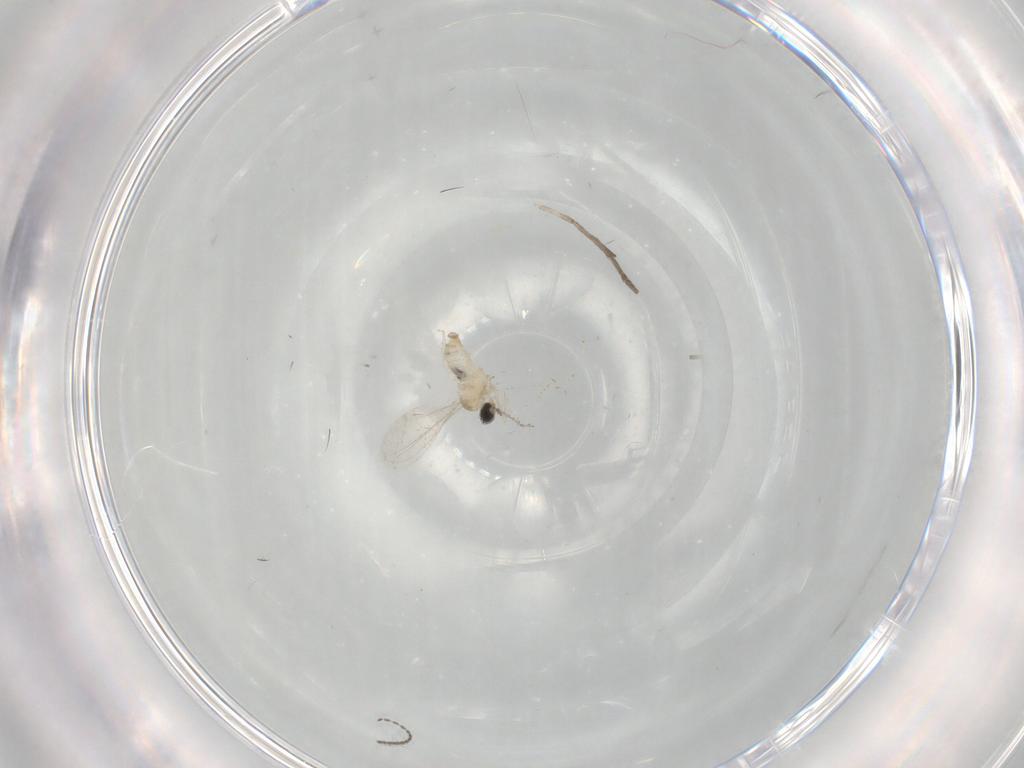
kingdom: Animalia
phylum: Arthropoda
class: Insecta
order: Diptera
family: Cecidomyiidae
